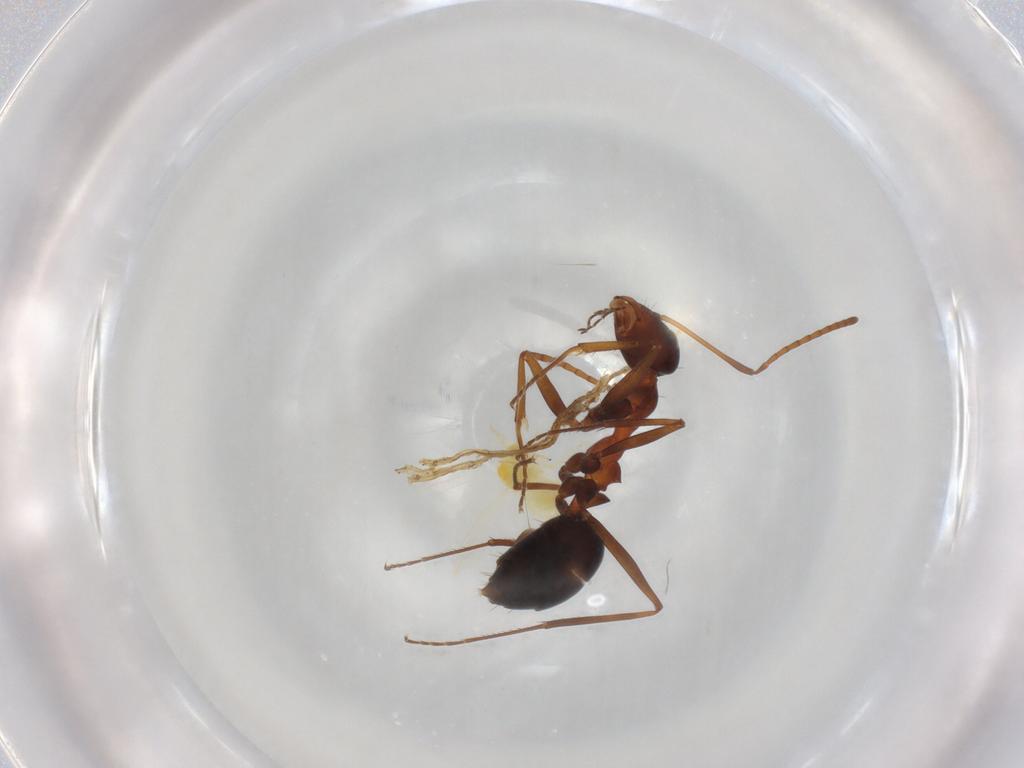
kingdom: Animalia
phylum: Arthropoda
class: Insecta
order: Hymenoptera
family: Formicidae
